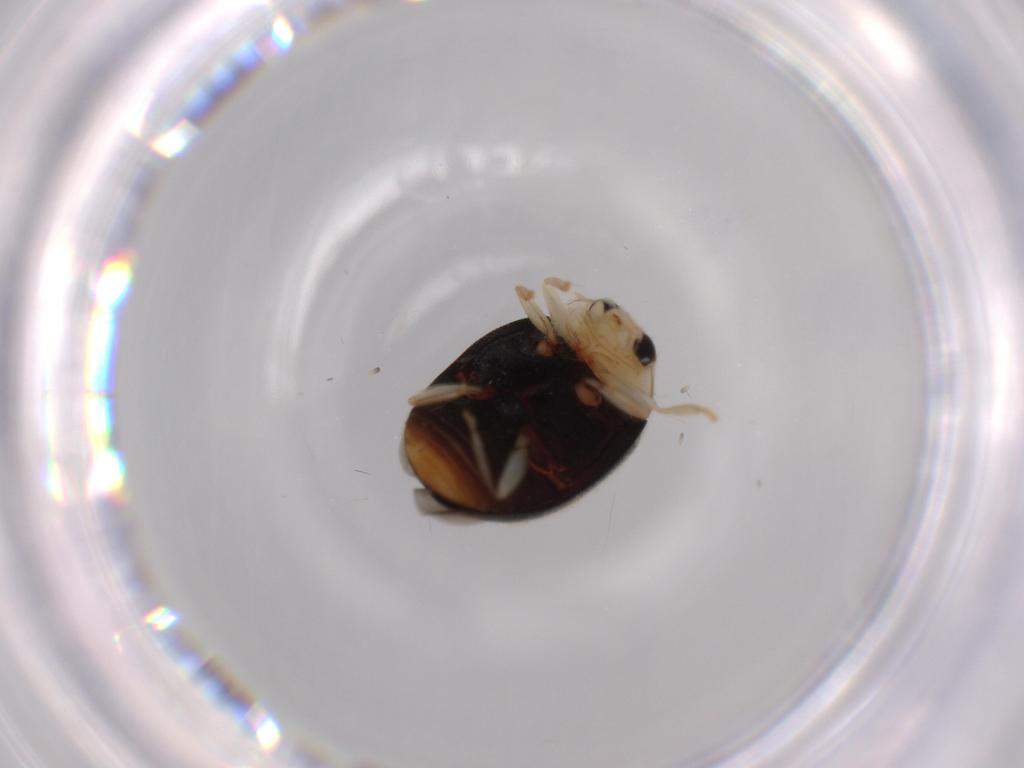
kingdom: Animalia
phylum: Arthropoda
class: Insecta
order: Coleoptera
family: Coccinellidae
